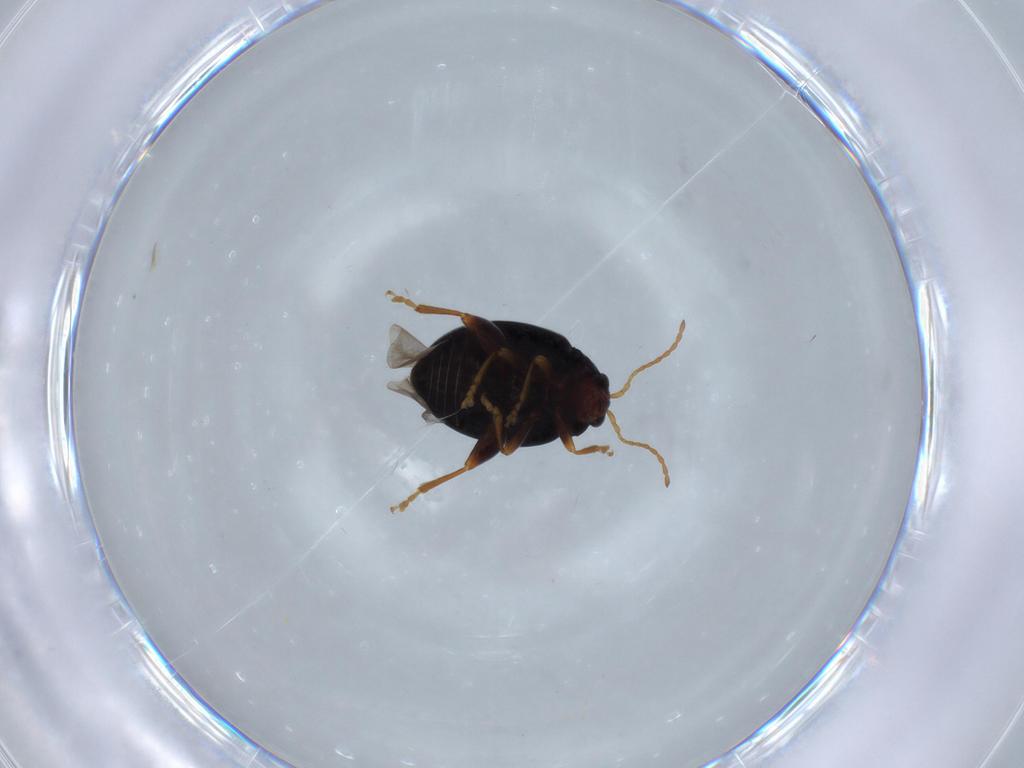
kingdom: Animalia
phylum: Arthropoda
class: Insecta
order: Coleoptera
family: Chrysomelidae
